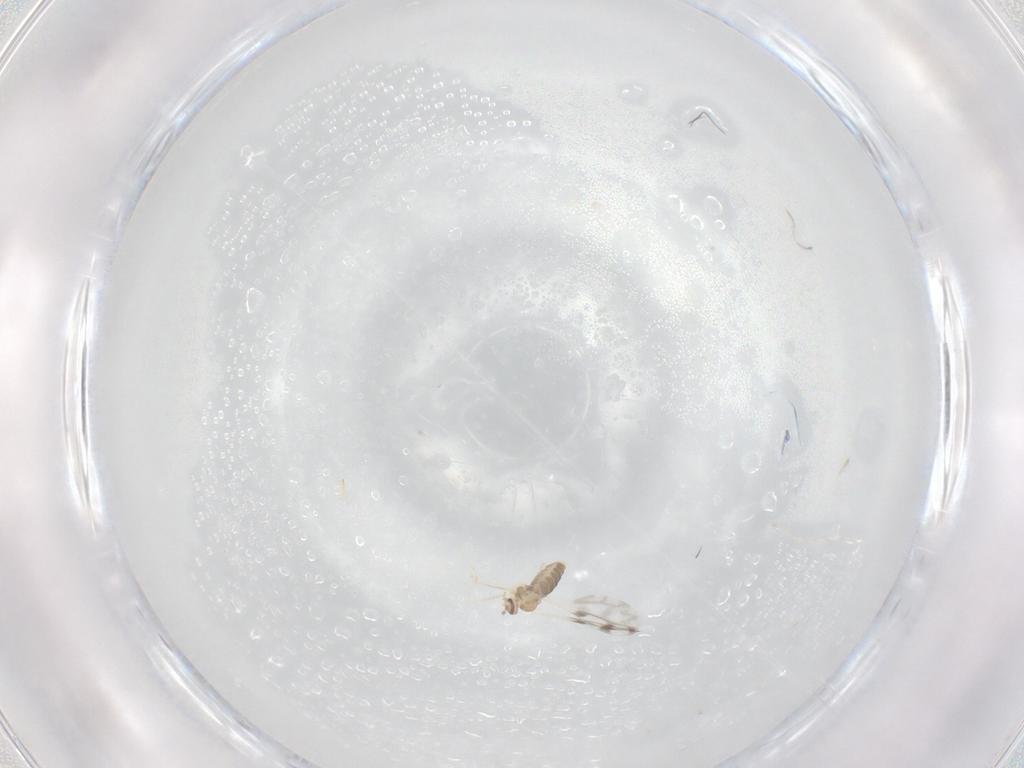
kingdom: Animalia
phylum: Arthropoda
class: Insecta
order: Diptera
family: Cecidomyiidae
